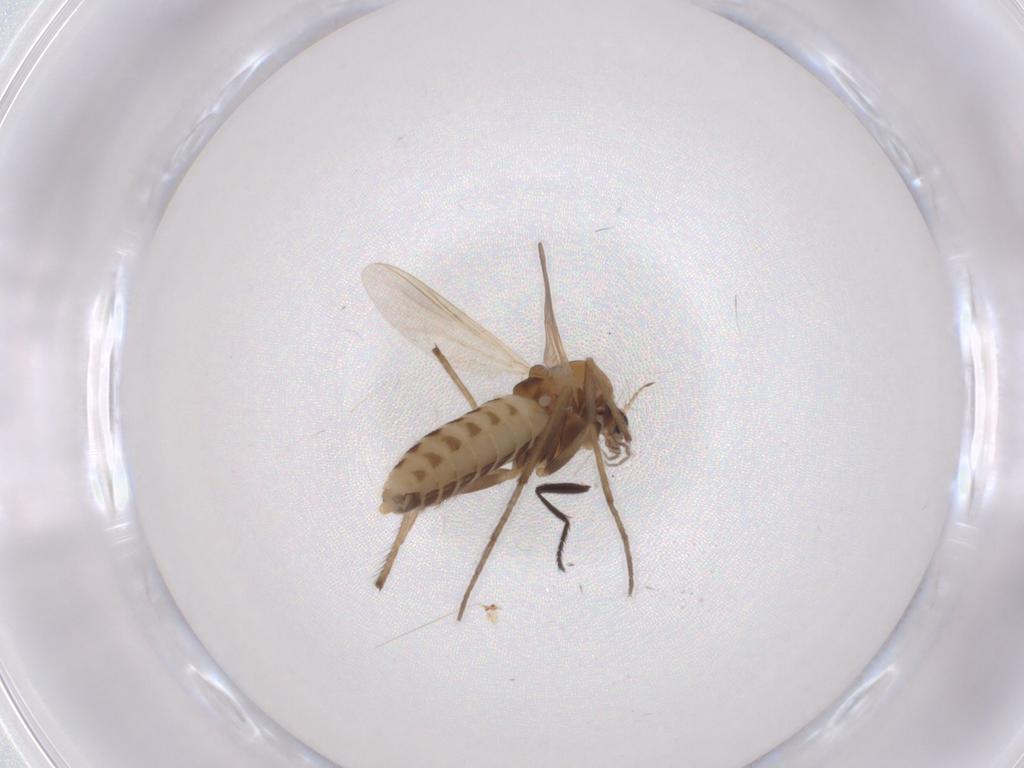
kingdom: Animalia
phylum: Arthropoda
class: Insecta
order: Diptera
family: Chironomidae
